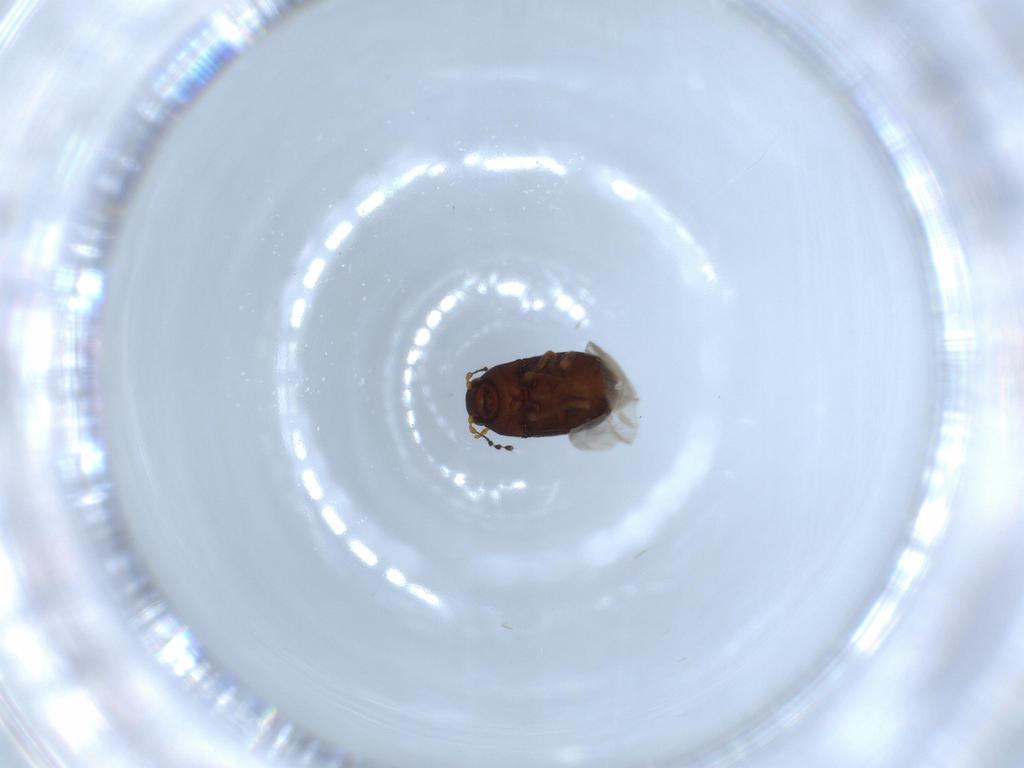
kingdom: Animalia
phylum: Arthropoda
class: Insecta
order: Coleoptera
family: Anthribidae
